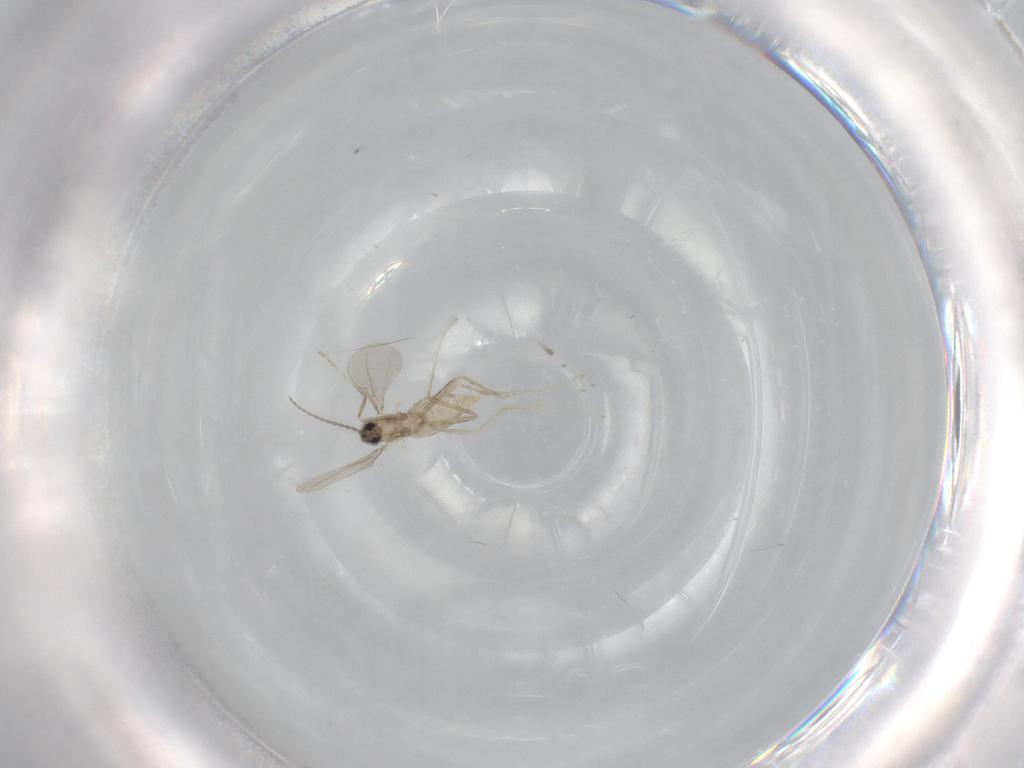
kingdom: Animalia
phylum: Arthropoda
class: Insecta
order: Diptera
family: Cecidomyiidae
